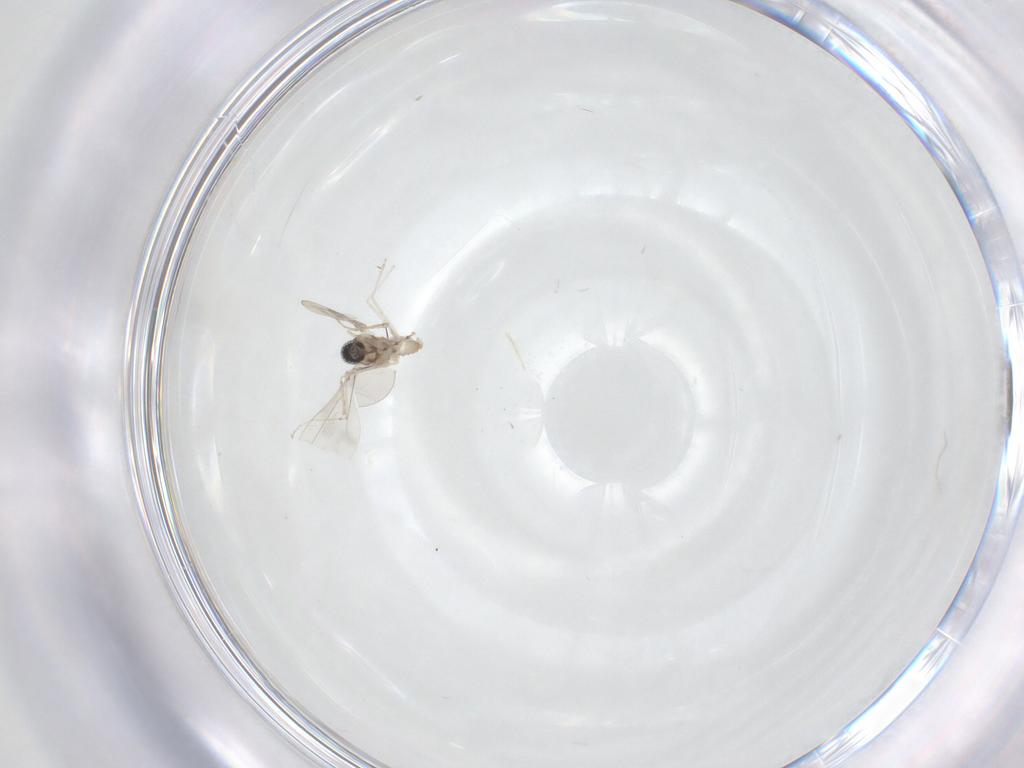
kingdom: Animalia
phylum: Arthropoda
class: Insecta
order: Diptera
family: Cecidomyiidae
